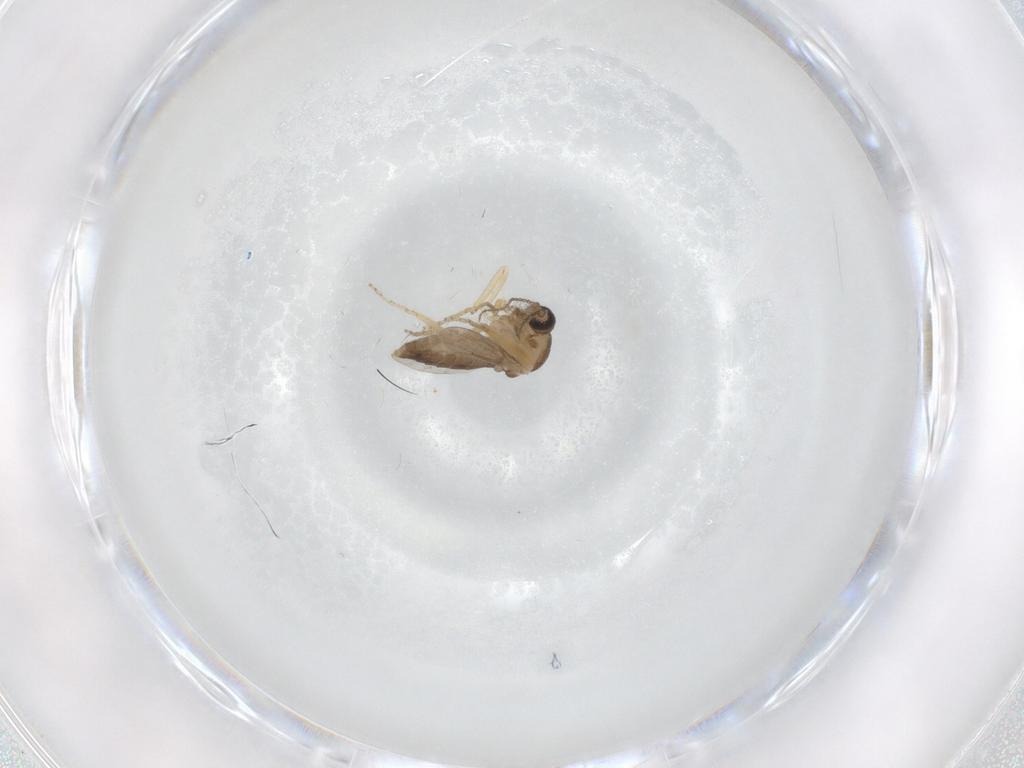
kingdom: Animalia
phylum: Arthropoda
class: Insecta
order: Diptera
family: Ceratopogonidae
